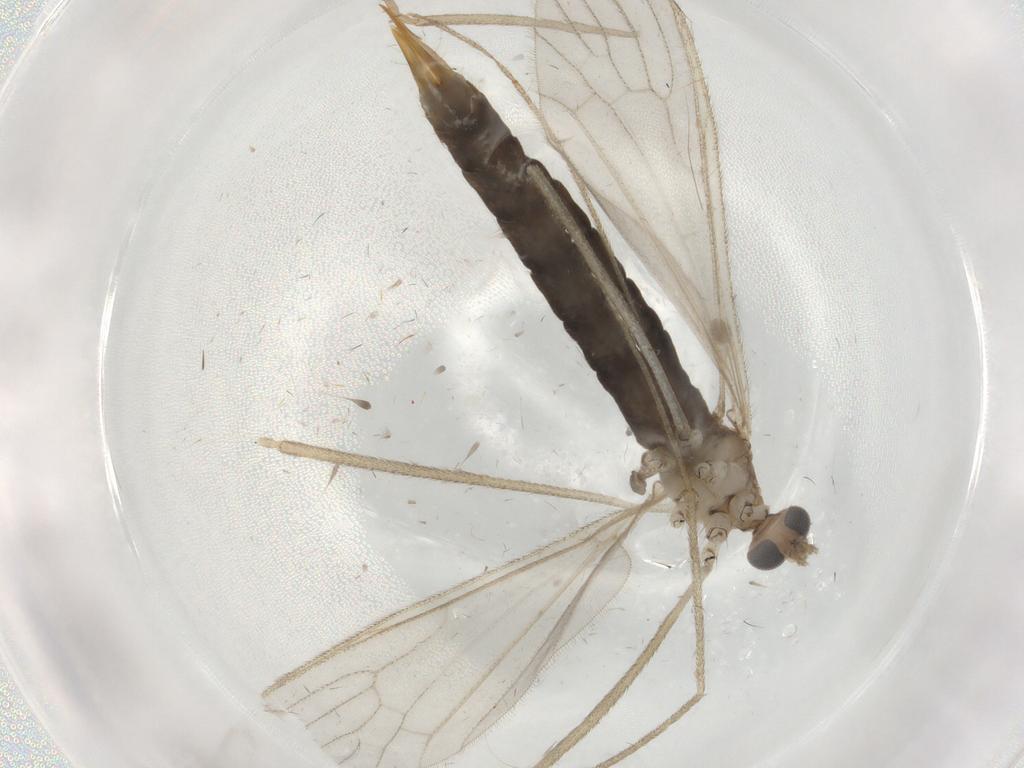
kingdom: Animalia
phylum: Arthropoda
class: Insecta
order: Diptera
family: Limoniidae
